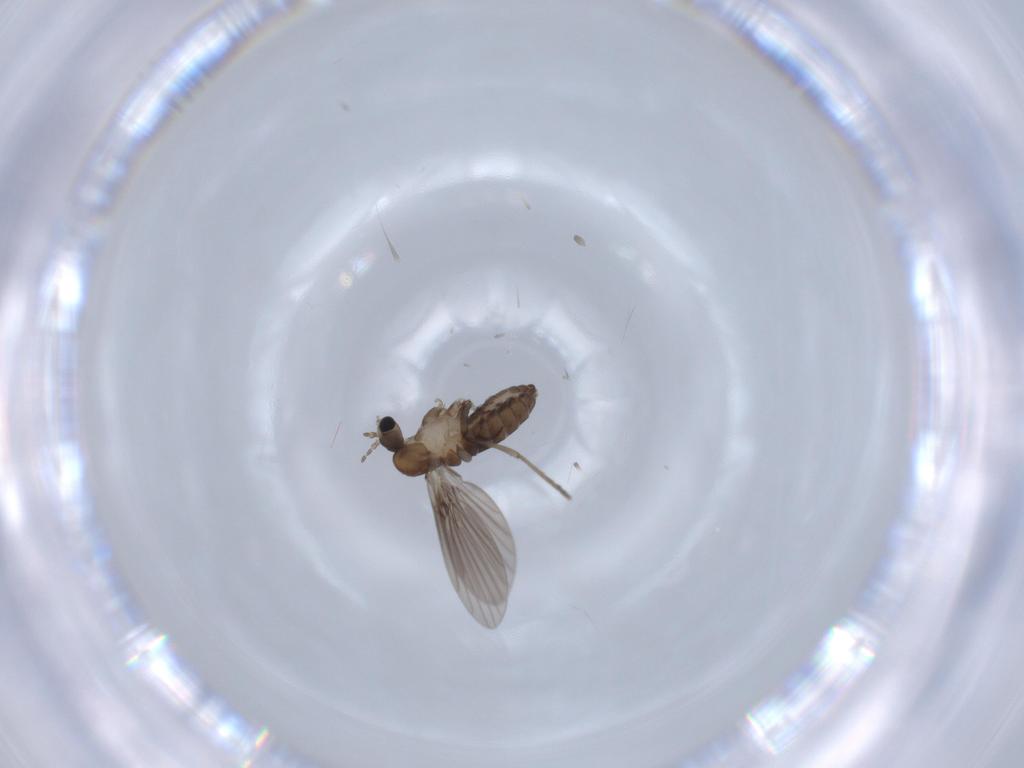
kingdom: Animalia
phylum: Arthropoda
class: Insecta
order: Diptera
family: Psychodidae
